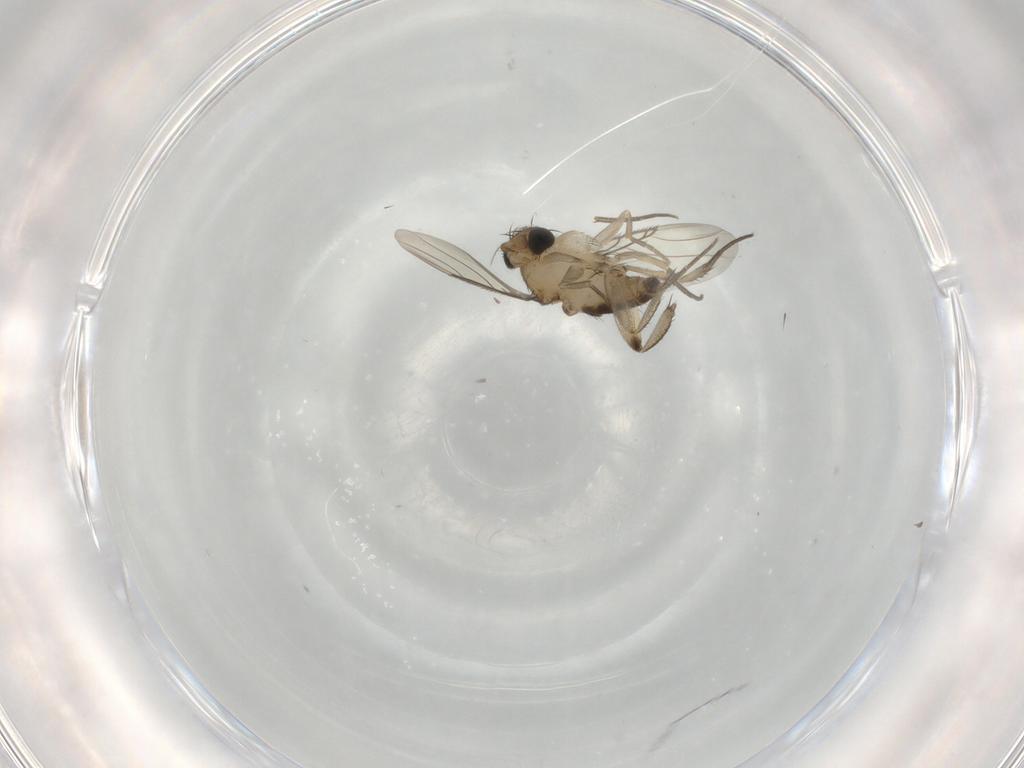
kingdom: Animalia
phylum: Arthropoda
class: Insecta
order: Diptera
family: Phoridae
